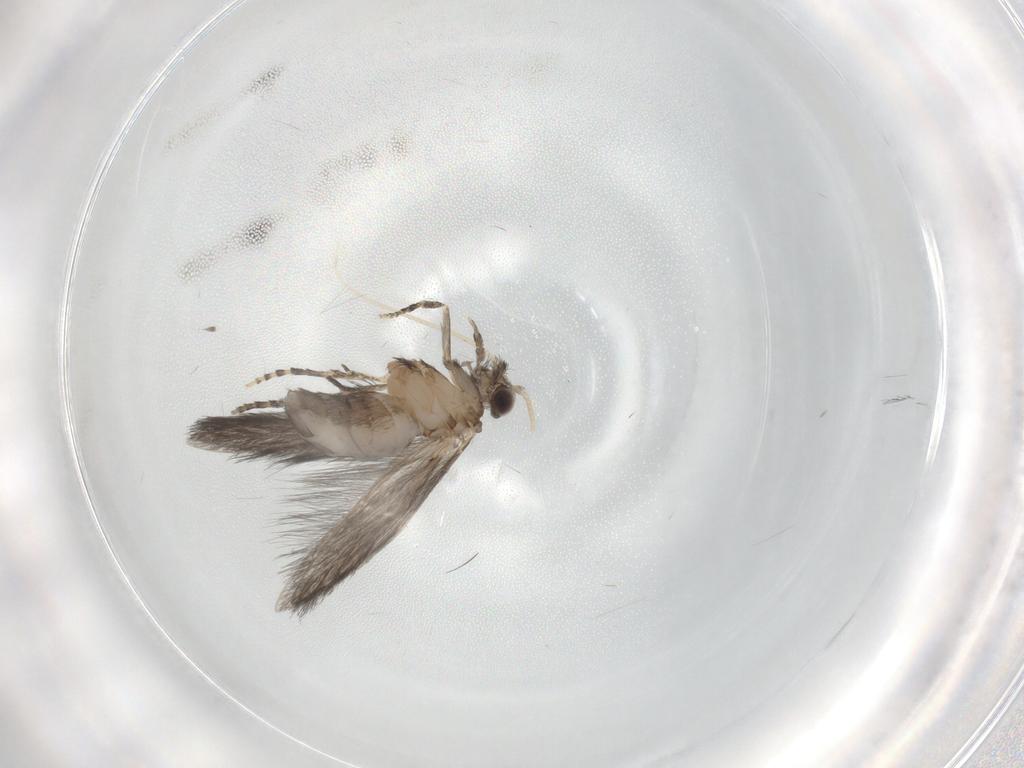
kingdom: Animalia
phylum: Arthropoda
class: Insecta
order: Trichoptera
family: Hydroptilidae
